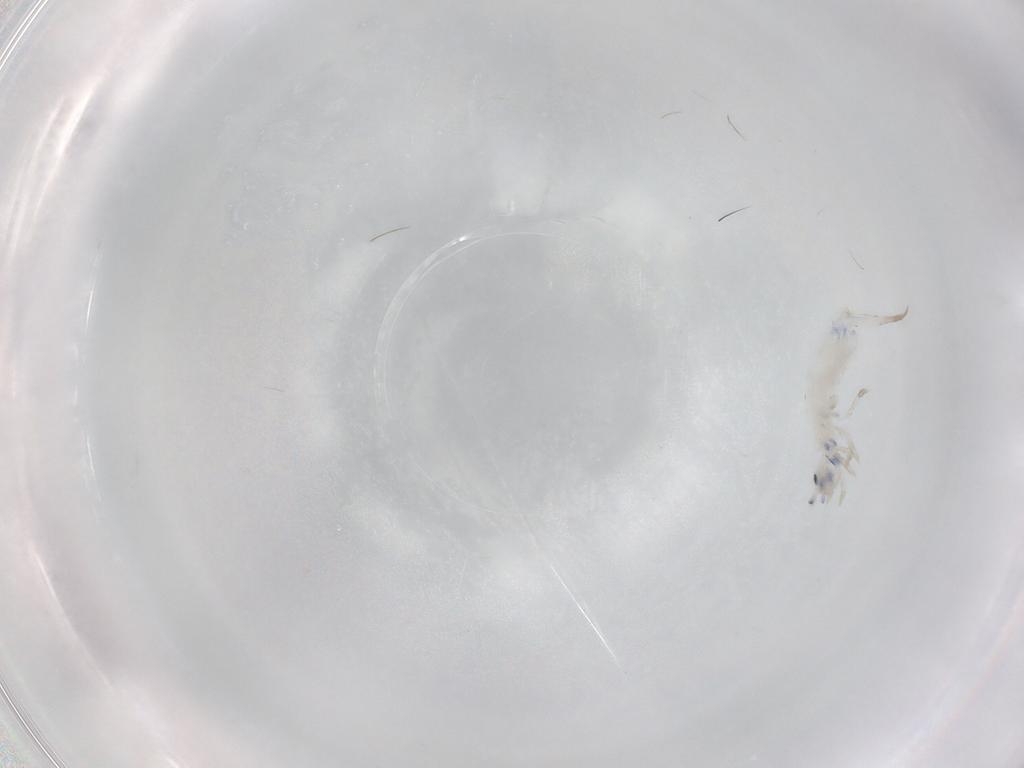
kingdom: Animalia
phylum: Arthropoda
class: Collembola
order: Entomobryomorpha
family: Entomobryidae
